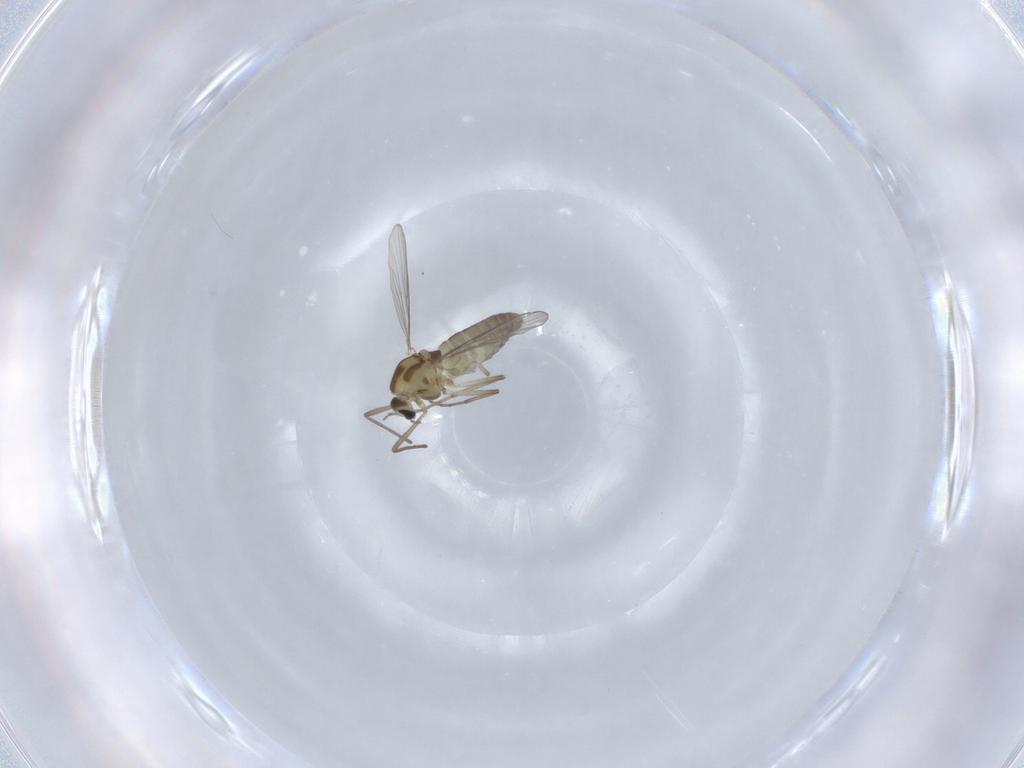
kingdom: Animalia
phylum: Arthropoda
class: Insecta
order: Diptera
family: Chironomidae
